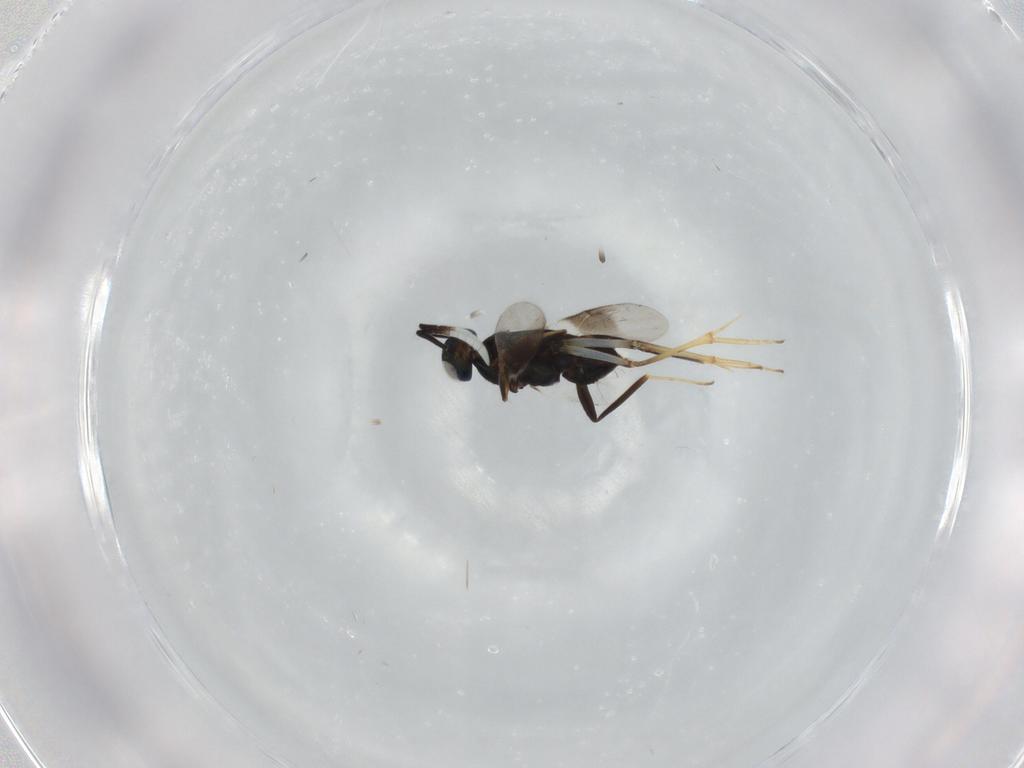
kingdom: Animalia
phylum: Arthropoda
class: Insecta
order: Hymenoptera
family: Encyrtidae
